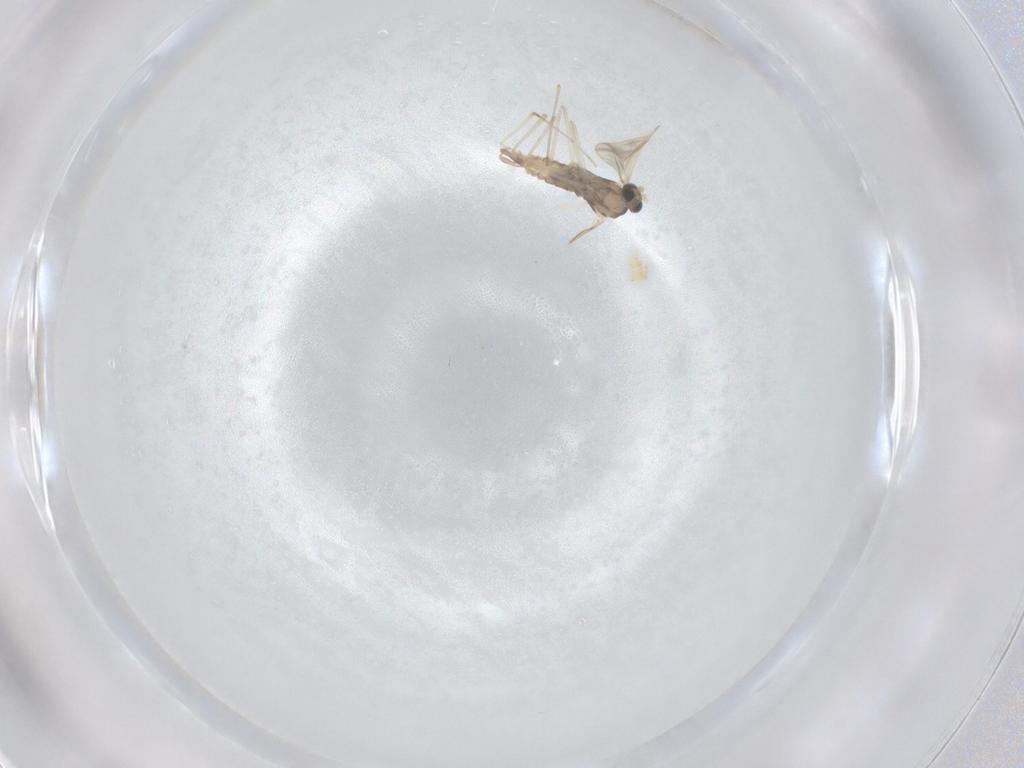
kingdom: Animalia
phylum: Arthropoda
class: Insecta
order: Diptera
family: Cecidomyiidae
